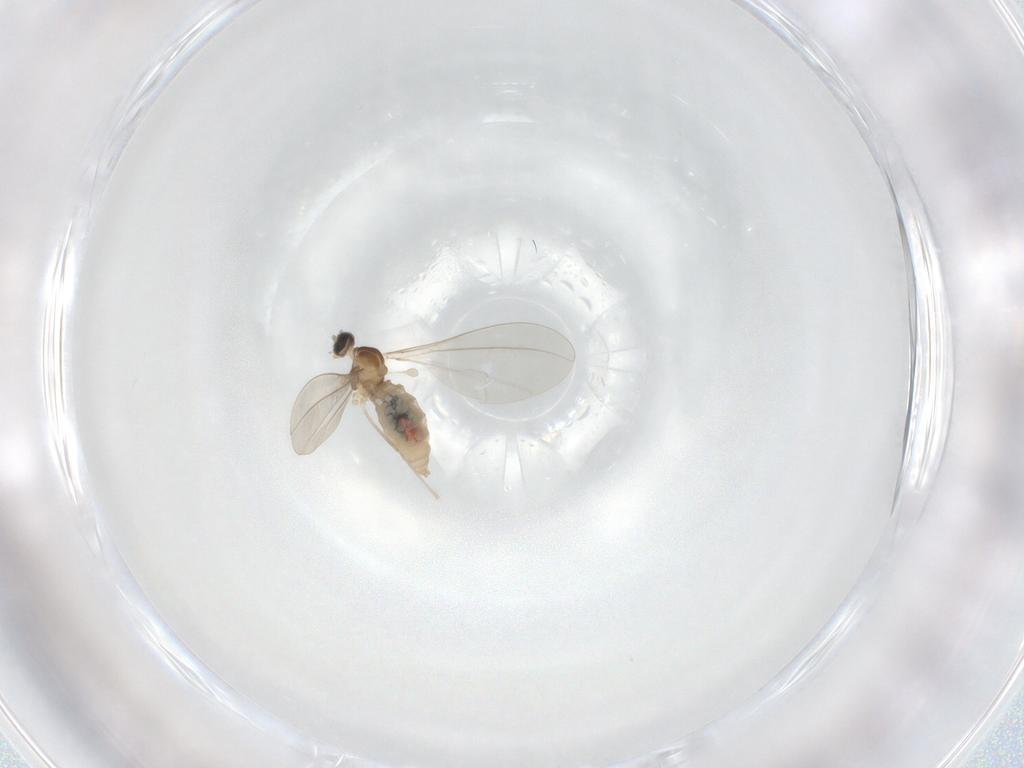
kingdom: Animalia
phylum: Arthropoda
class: Insecta
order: Diptera
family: Cecidomyiidae
